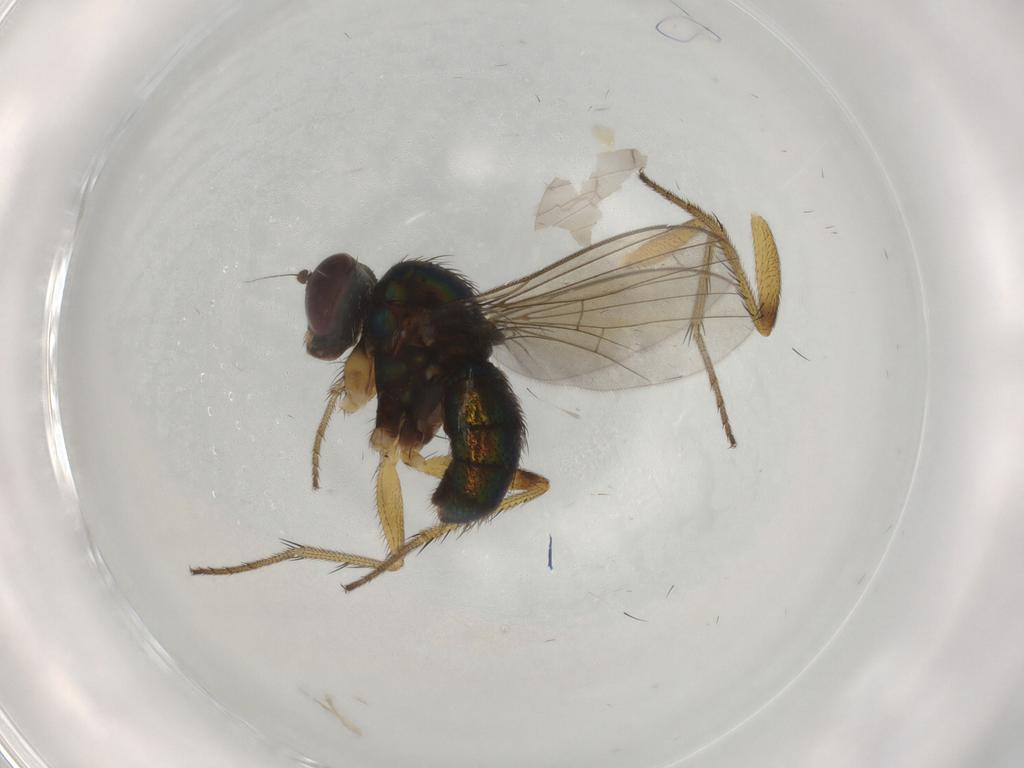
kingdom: Animalia
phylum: Arthropoda
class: Insecta
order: Diptera
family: Dolichopodidae
